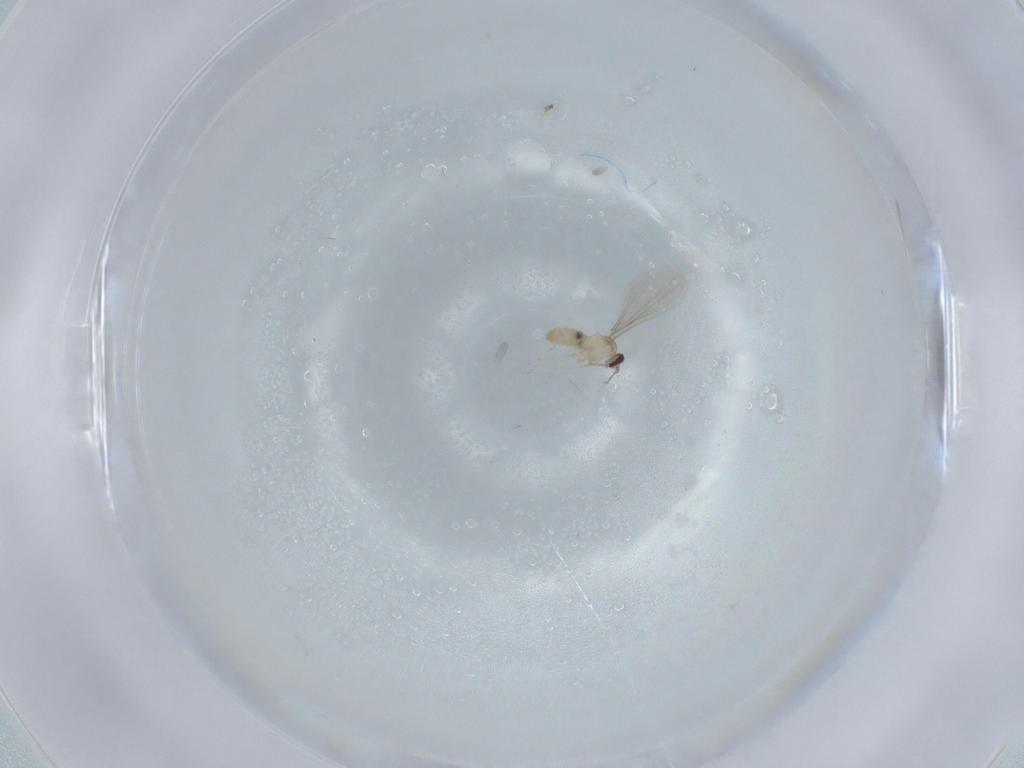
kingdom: Animalia
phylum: Arthropoda
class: Insecta
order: Diptera
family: Cecidomyiidae
